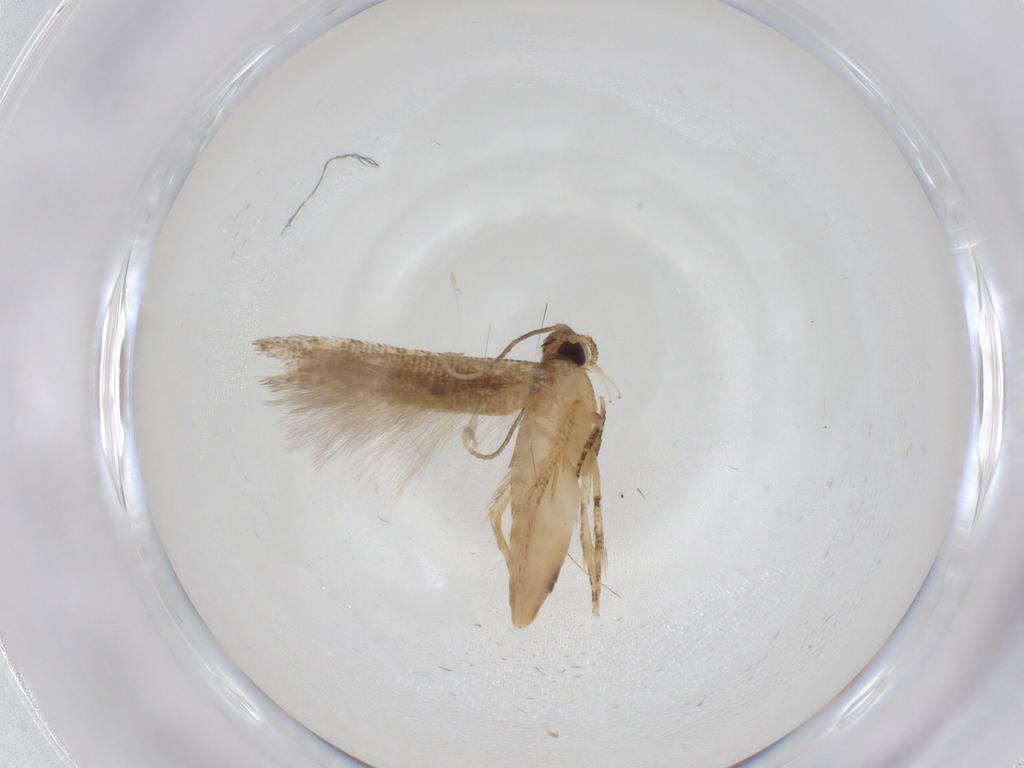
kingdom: Animalia
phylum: Arthropoda
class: Insecta
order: Lepidoptera
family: Cosmopterigidae
